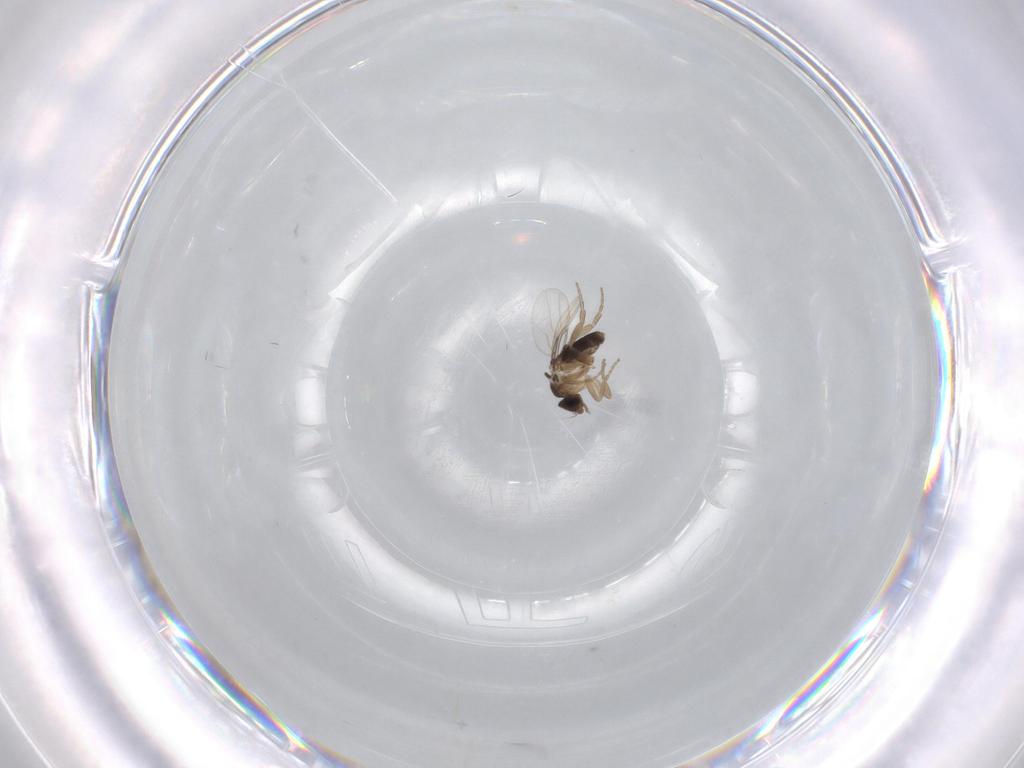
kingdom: Animalia
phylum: Arthropoda
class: Insecta
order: Diptera
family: Phoridae
